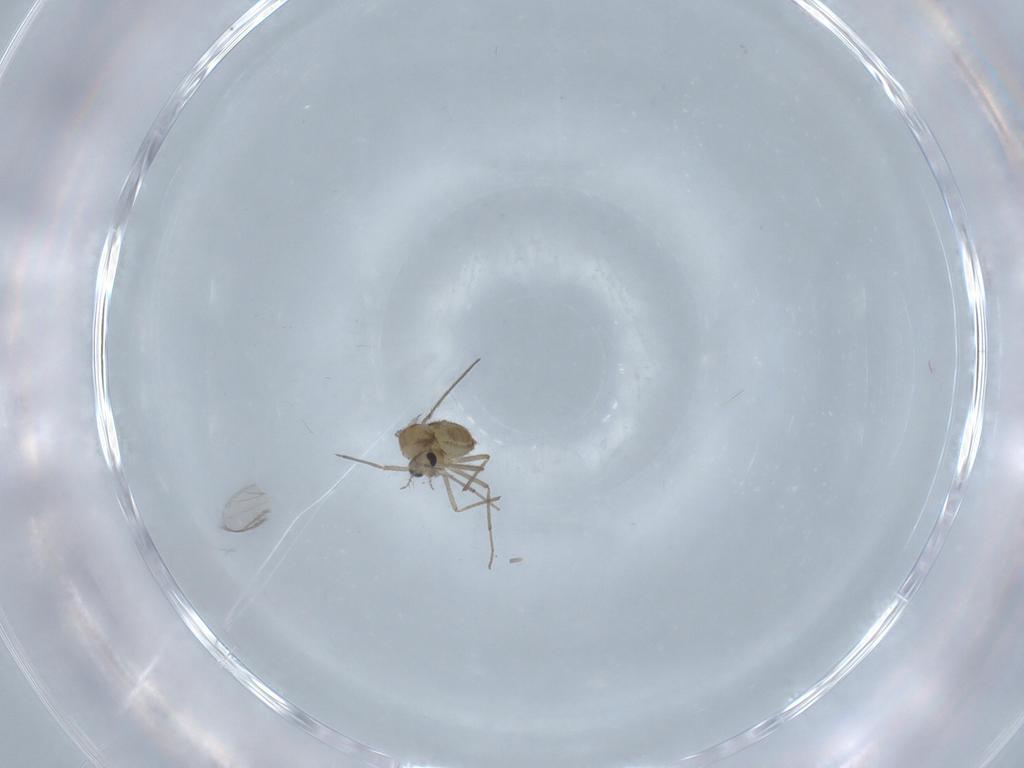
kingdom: Animalia
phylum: Arthropoda
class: Insecta
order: Diptera
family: Chironomidae
